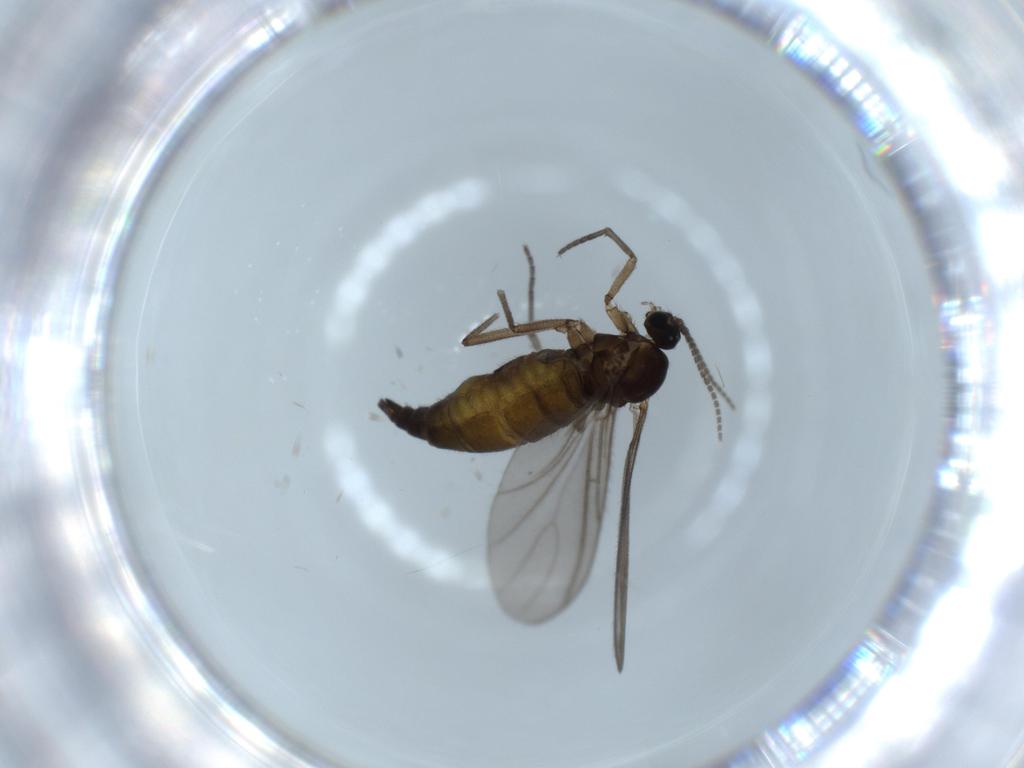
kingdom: Animalia
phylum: Arthropoda
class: Insecta
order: Diptera
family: Sciaridae
